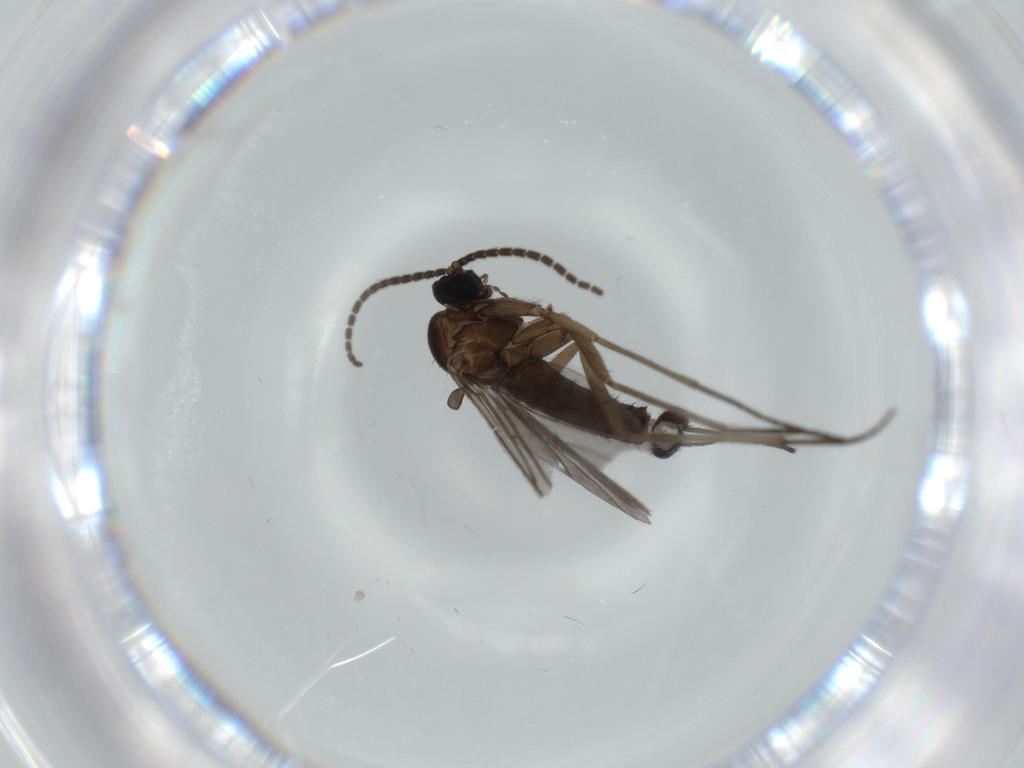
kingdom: Animalia
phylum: Arthropoda
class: Insecta
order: Diptera
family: Sciaridae
